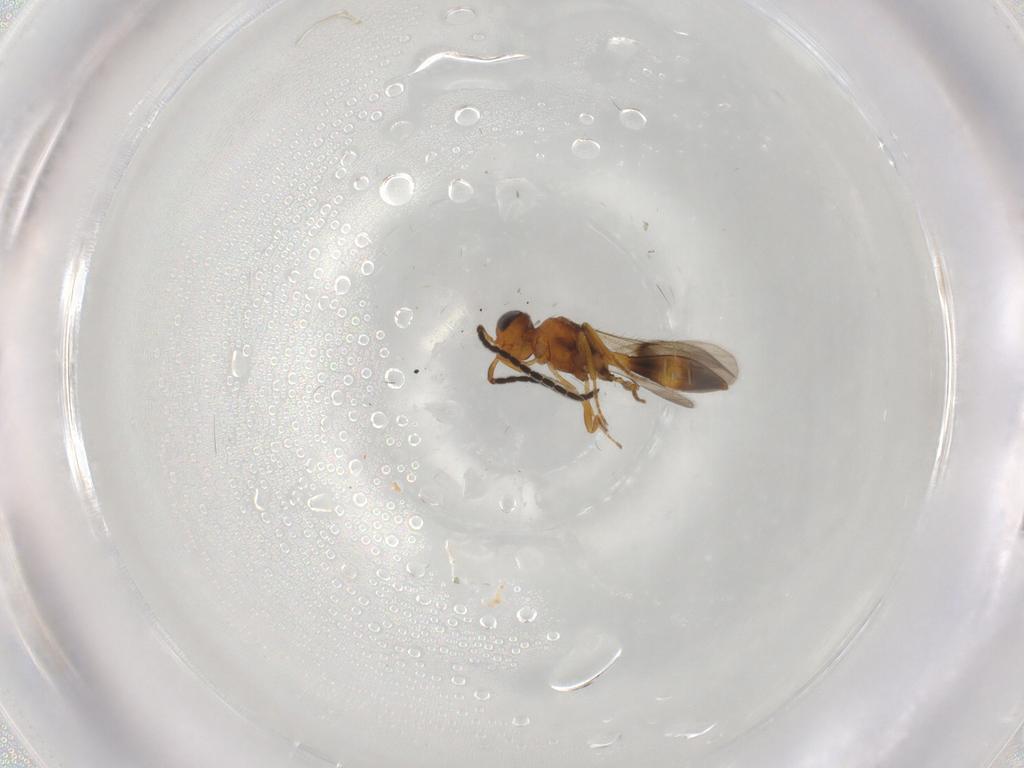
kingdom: Animalia
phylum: Arthropoda
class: Insecta
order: Hymenoptera
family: Scelionidae
